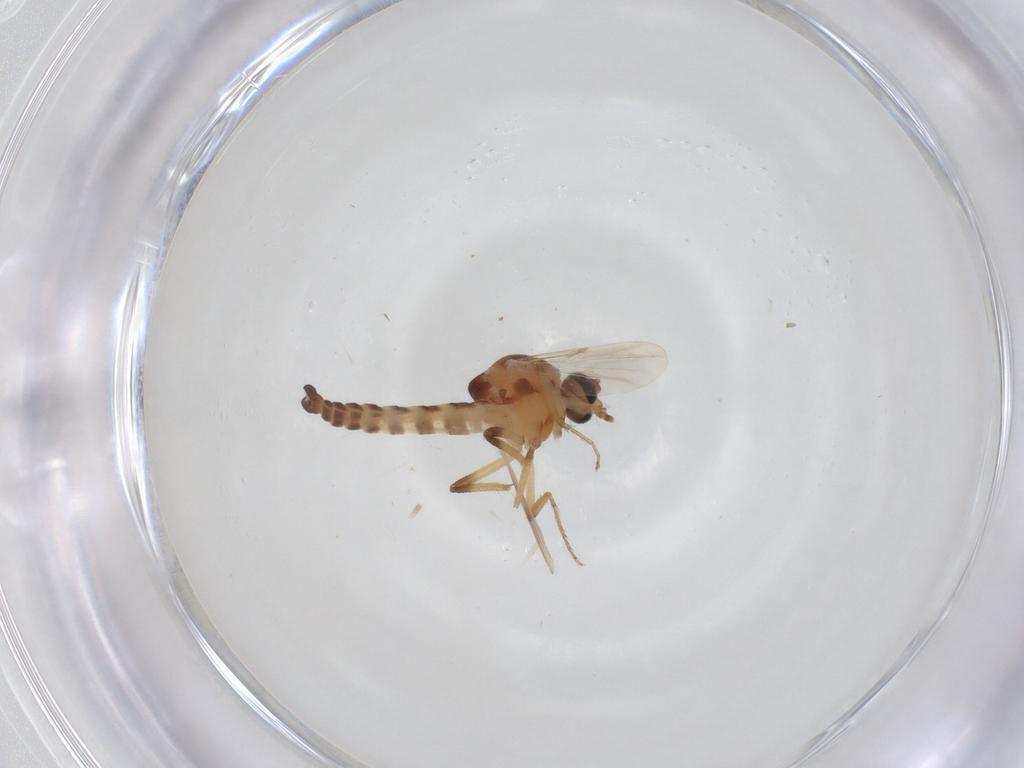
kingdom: Animalia
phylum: Arthropoda
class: Insecta
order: Diptera
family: Ceratopogonidae
